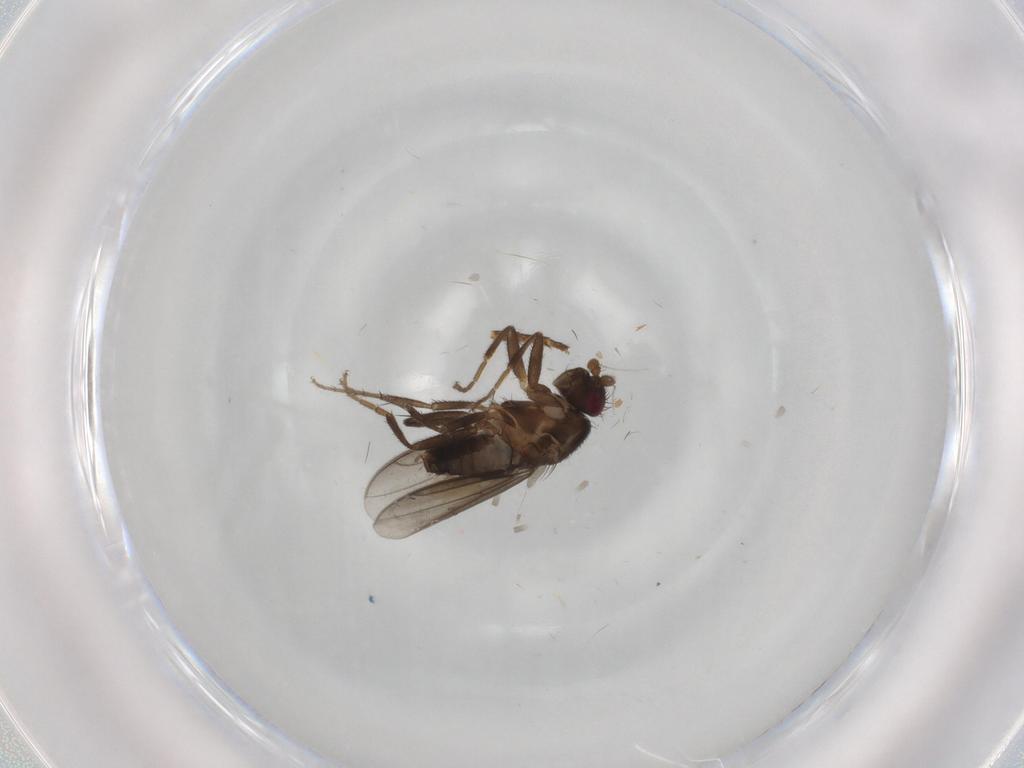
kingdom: Animalia
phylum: Arthropoda
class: Insecta
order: Diptera
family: Sphaeroceridae
